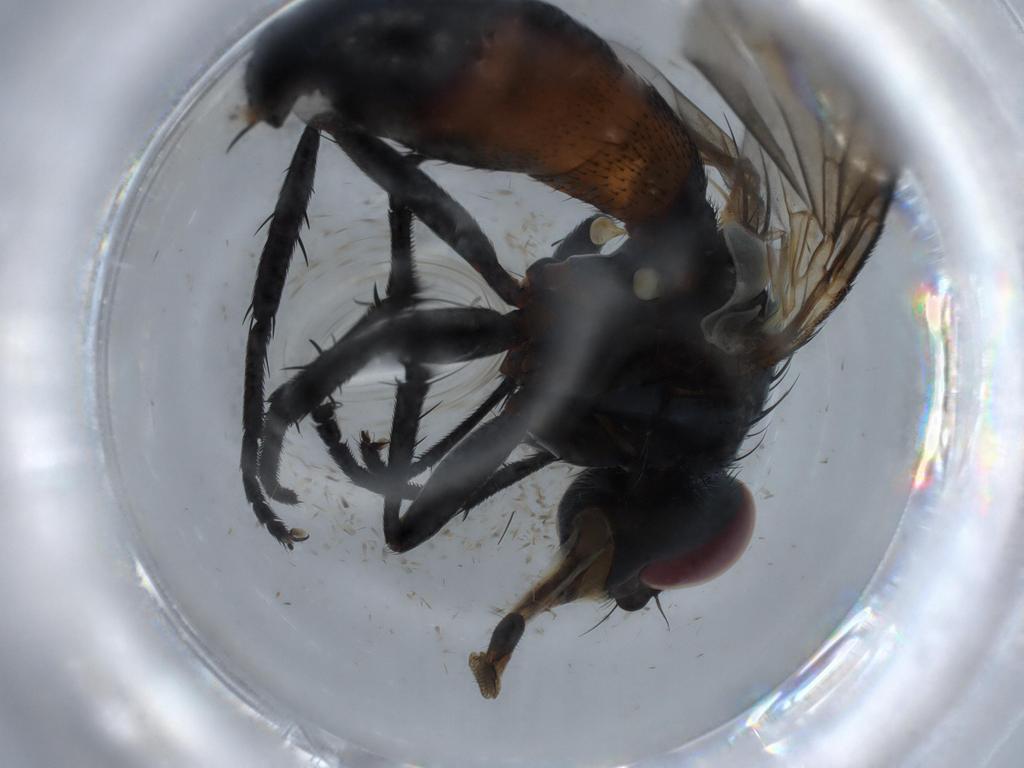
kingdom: Animalia
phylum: Arthropoda
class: Insecta
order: Diptera
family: Tachinidae
